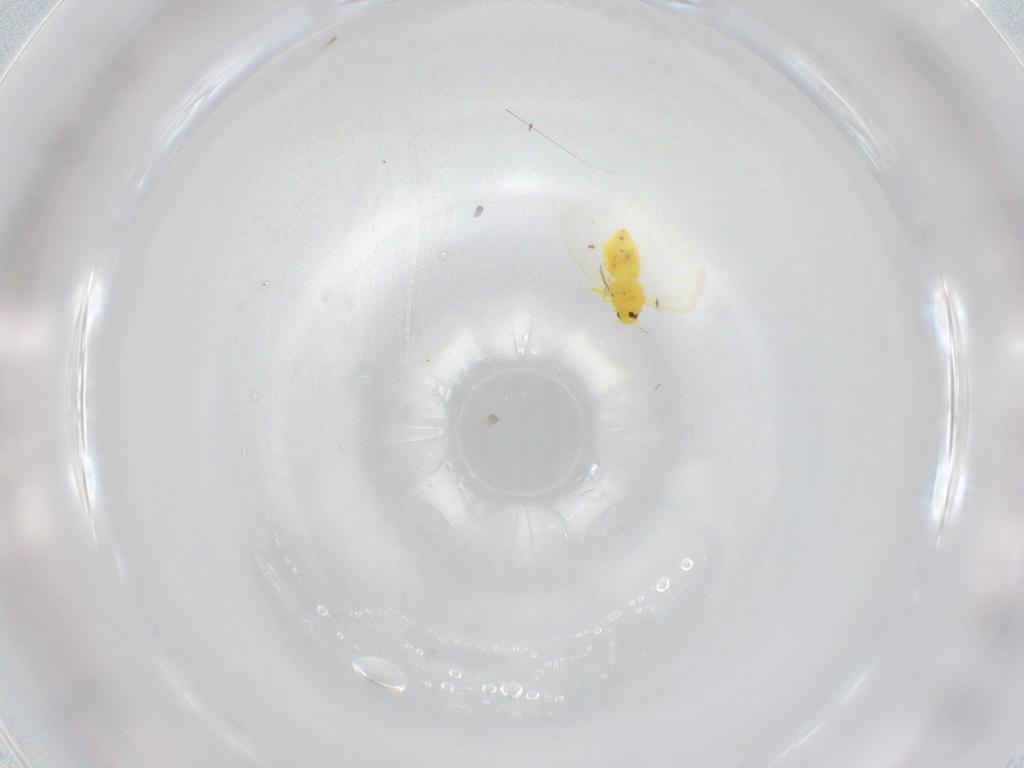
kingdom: Animalia
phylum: Arthropoda
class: Insecta
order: Hemiptera
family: Aleyrodidae
